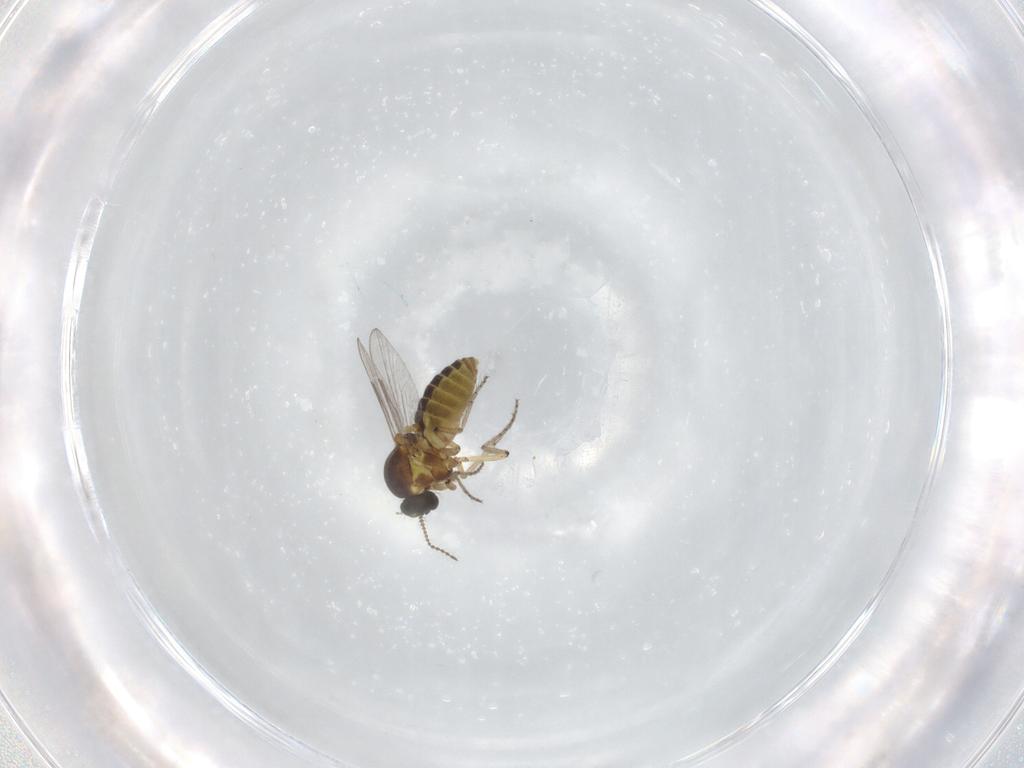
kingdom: Animalia
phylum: Arthropoda
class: Insecta
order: Diptera
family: Ceratopogonidae
